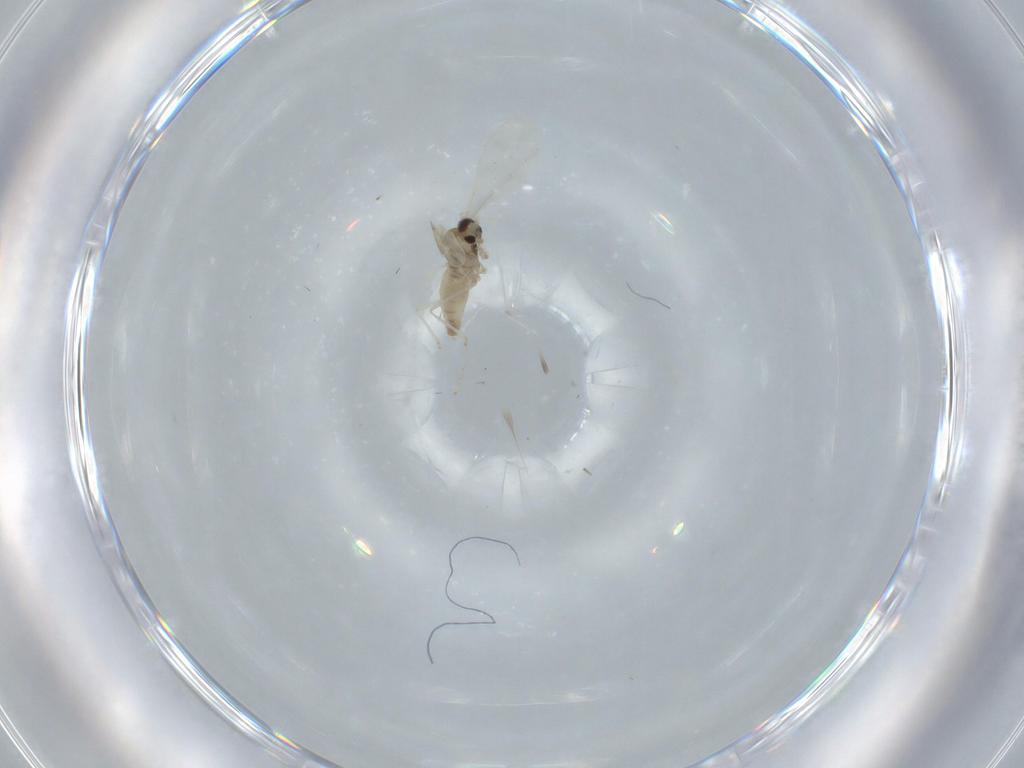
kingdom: Animalia
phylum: Arthropoda
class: Insecta
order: Diptera
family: Cecidomyiidae
